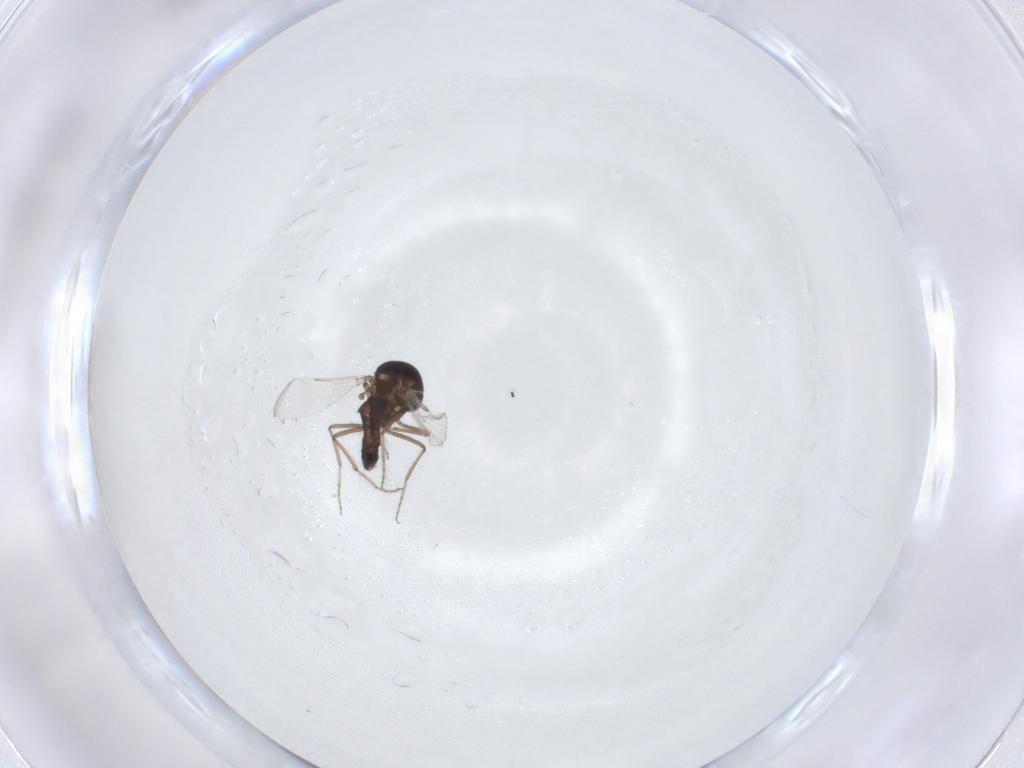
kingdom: Animalia
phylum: Arthropoda
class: Insecta
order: Diptera
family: Ceratopogonidae
